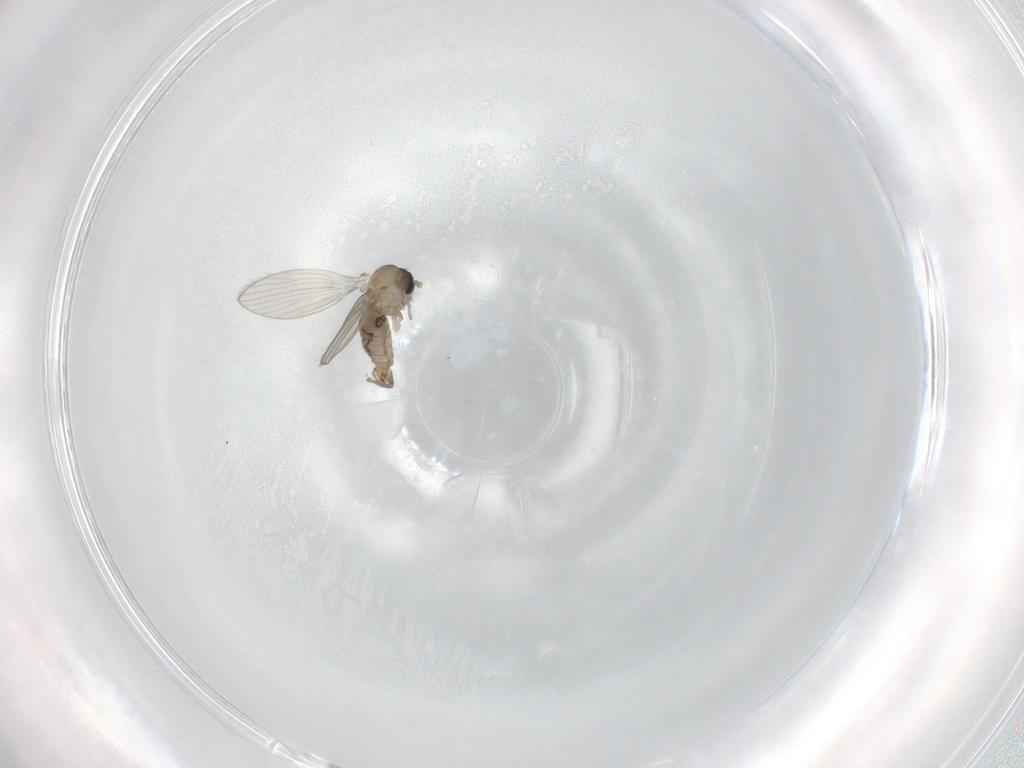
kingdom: Animalia
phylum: Arthropoda
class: Insecta
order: Diptera
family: Psychodidae
